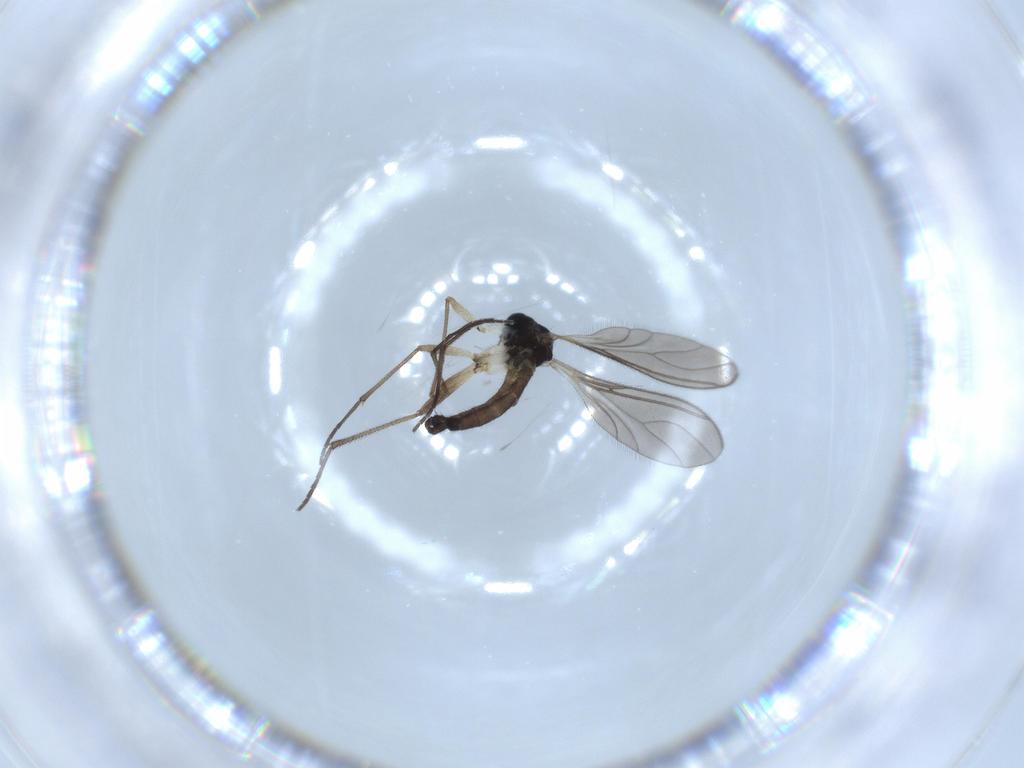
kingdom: Animalia
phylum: Arthropoda
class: Insecta
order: Diptera
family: Sciaridae
